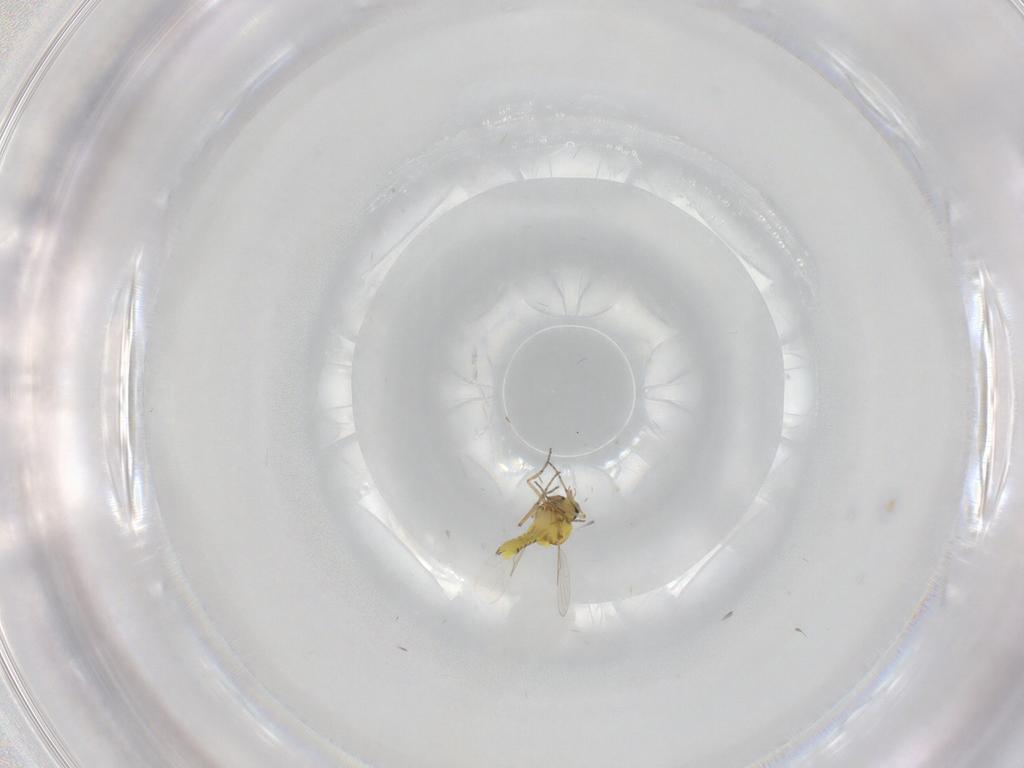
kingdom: Animalia
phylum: Arthropoda
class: Insecta
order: Diptera
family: Ceratopogonidae
